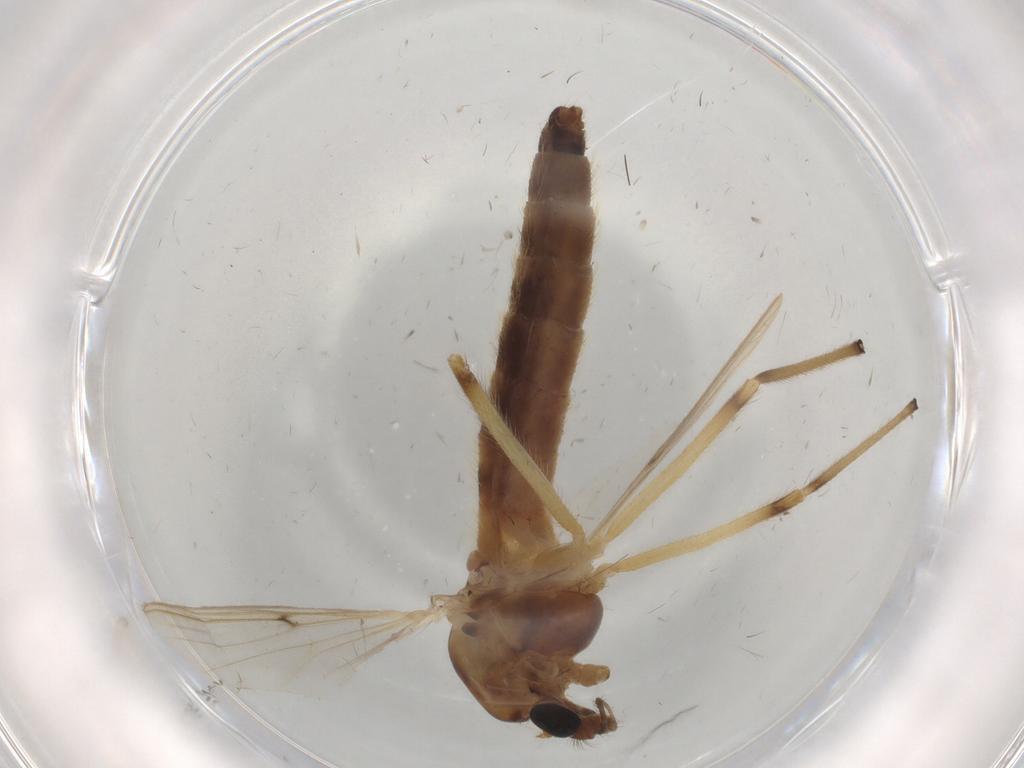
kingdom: Animalia
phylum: Arthropoda
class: Insecta
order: Diptera
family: Chironomidae
